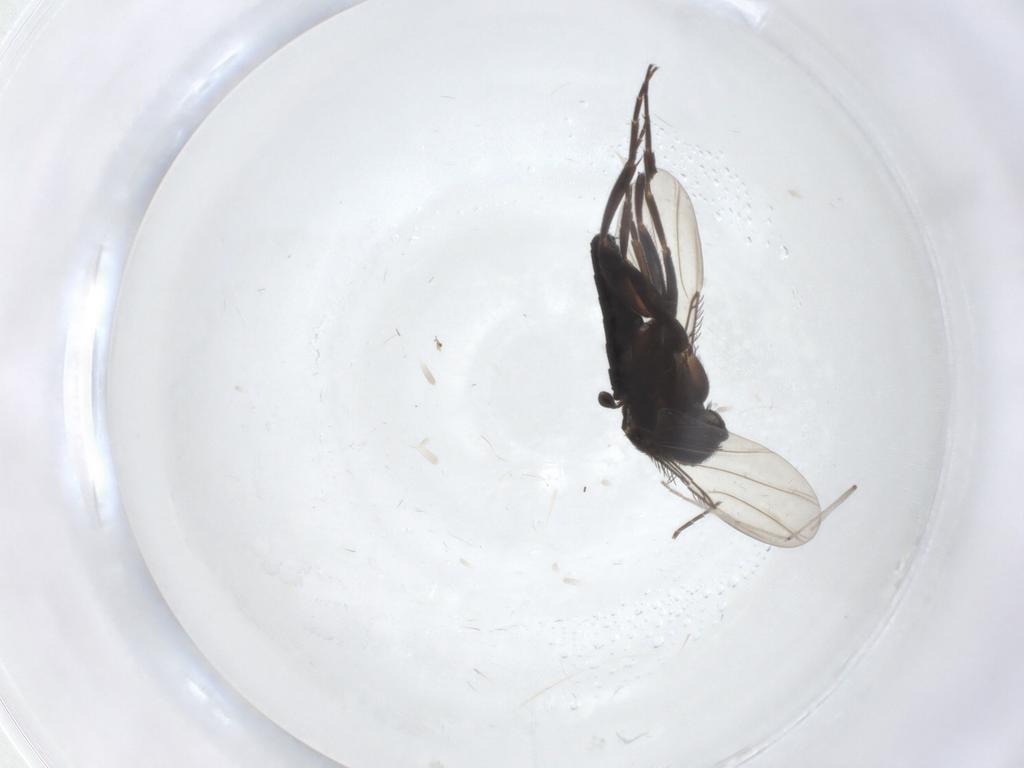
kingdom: Animalia
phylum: Arthropoda
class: Insecta
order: Diptera
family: Phoridae
